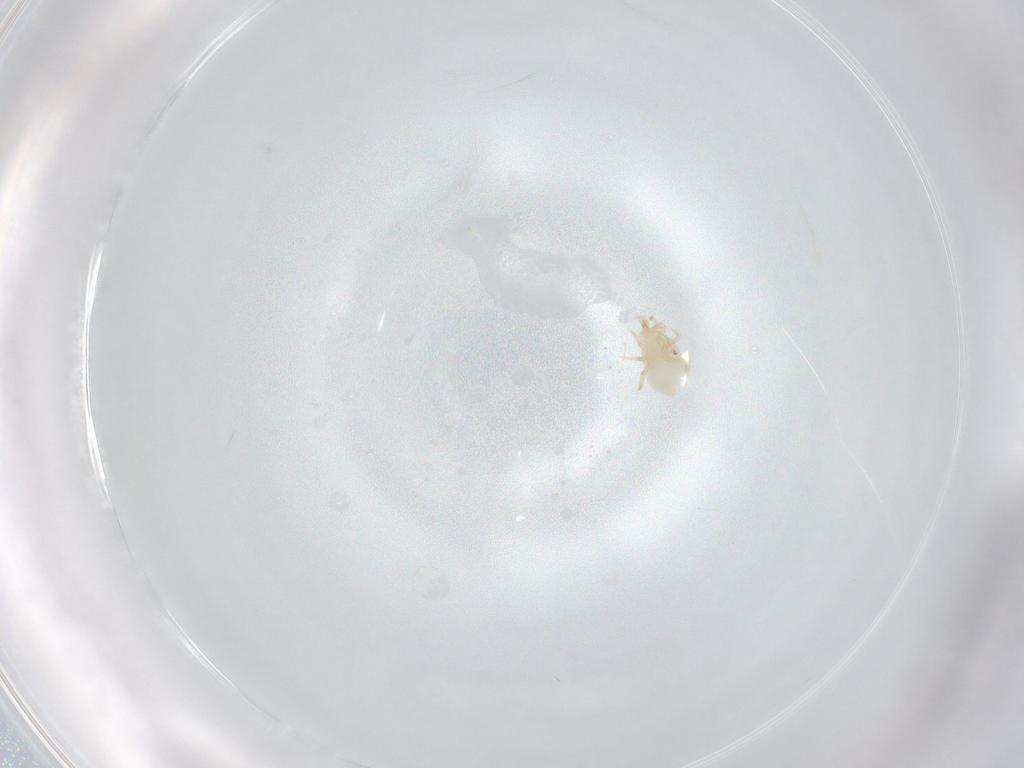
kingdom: Animalia
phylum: Arthropoda
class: Arachnida
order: Mesostigmata
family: Melicharidae
